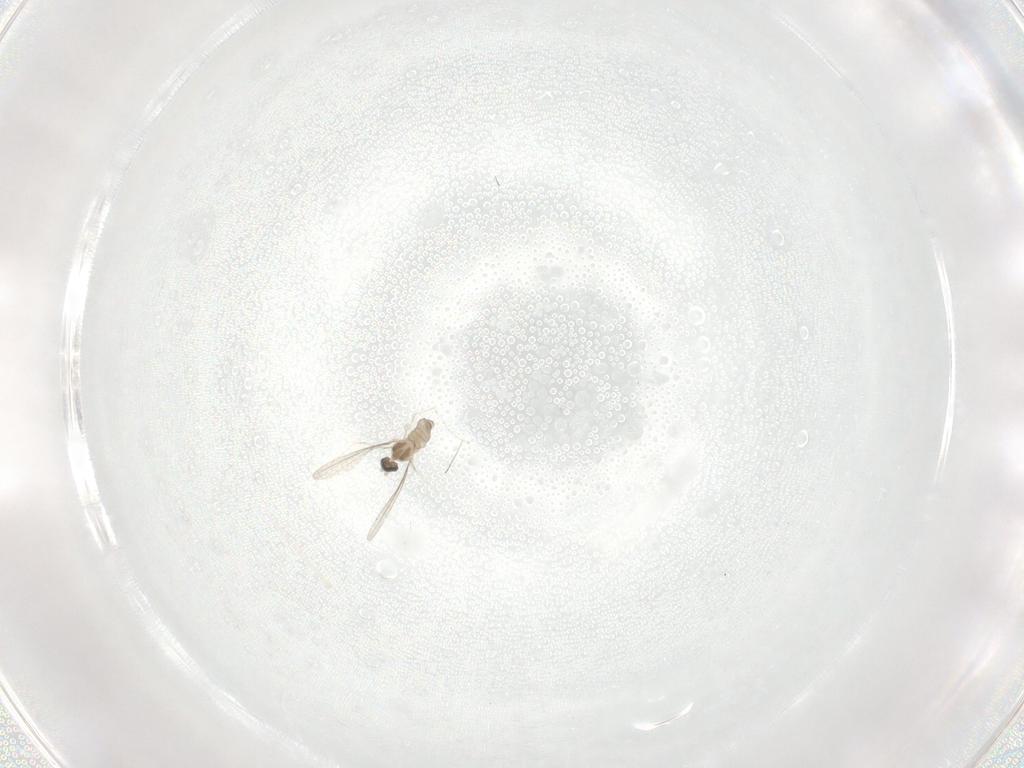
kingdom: Animalia
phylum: Arthropoda
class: Insecta
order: Diptera
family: Cecidomyiidae
